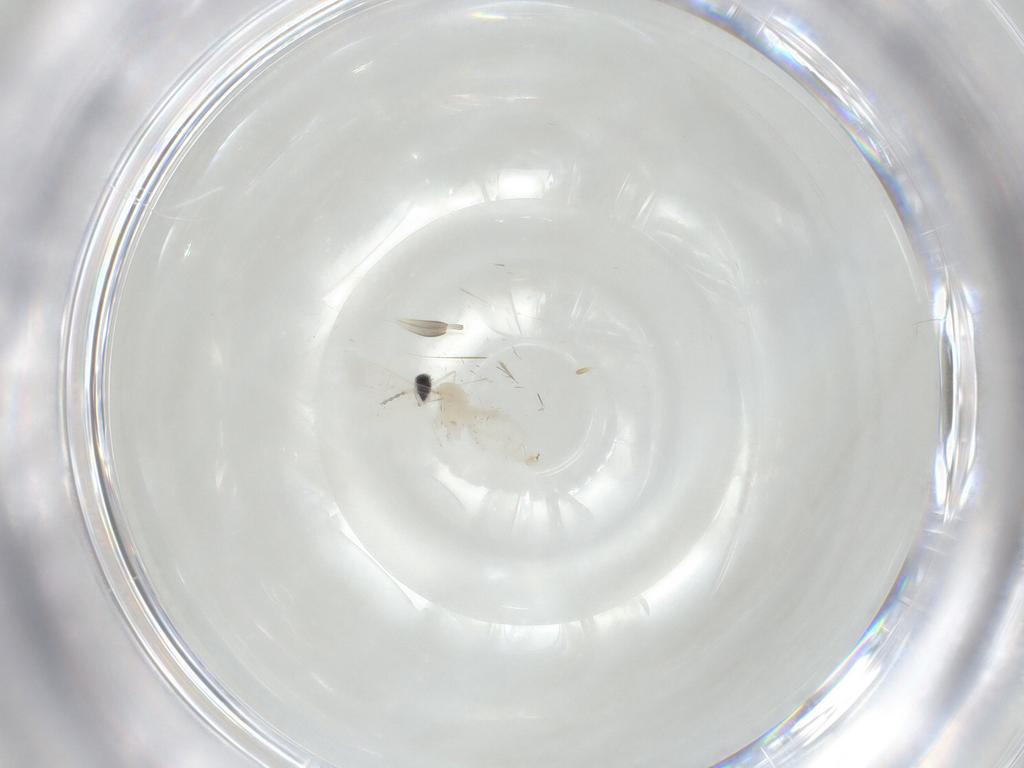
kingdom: Animalia
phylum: Arthropoda
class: Insecta
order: Diptera
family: Cecidomyiidae
